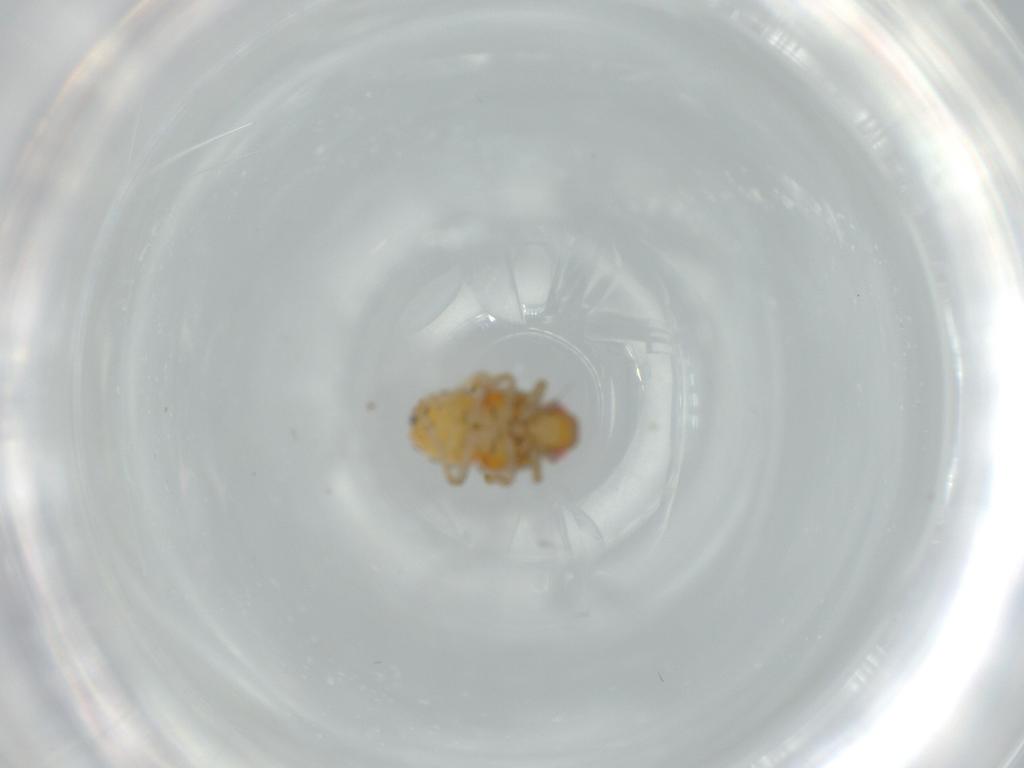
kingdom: Animalia
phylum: Arthropoda
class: Insecta
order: Hemiptera
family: Issidae
